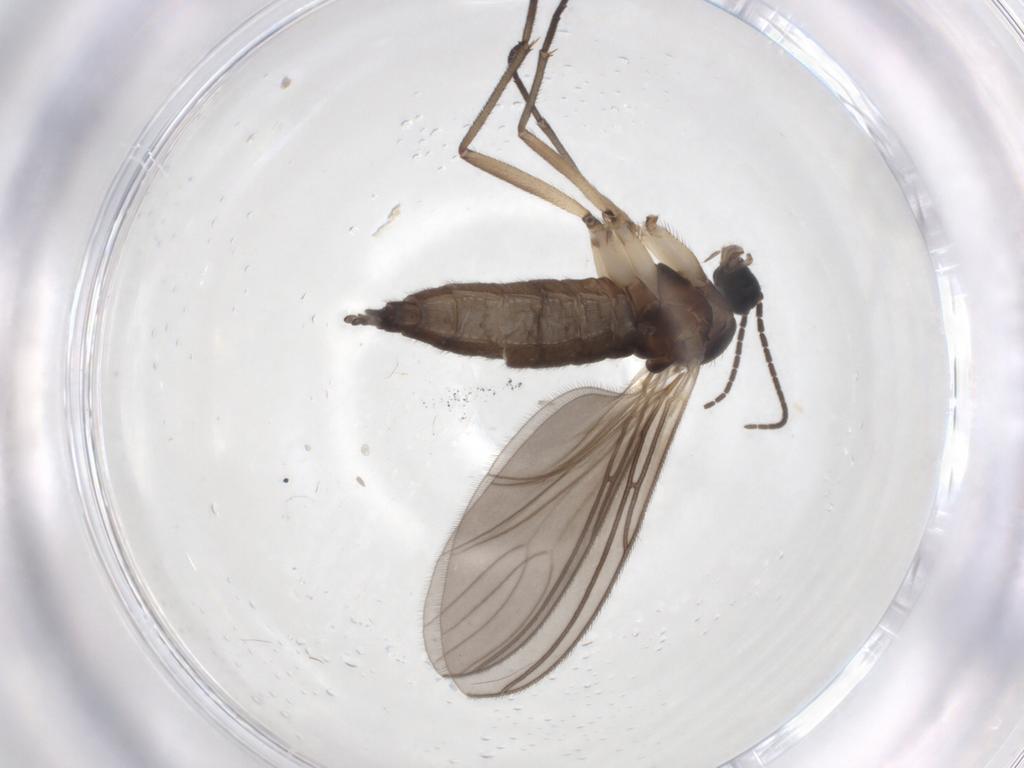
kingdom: Animalia
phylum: Arthropoda
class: Insecta
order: Diptera
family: Sciaridae
